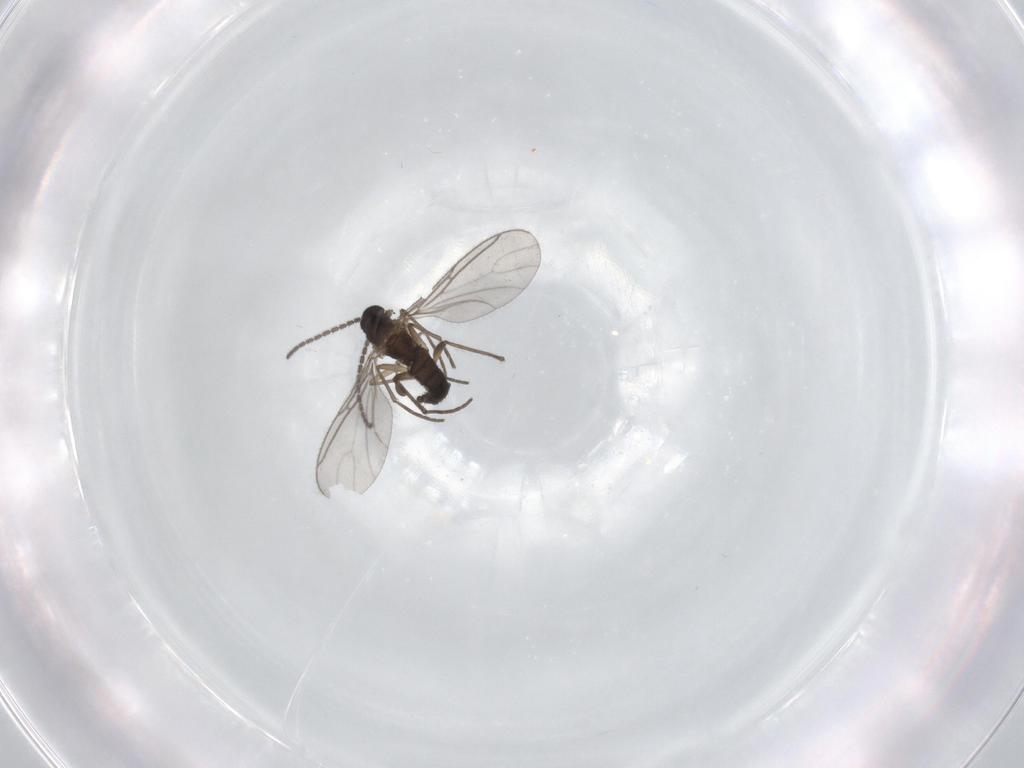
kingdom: Animalia
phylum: Arthropoda
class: Insecta
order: Diptera
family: Sciaridae
